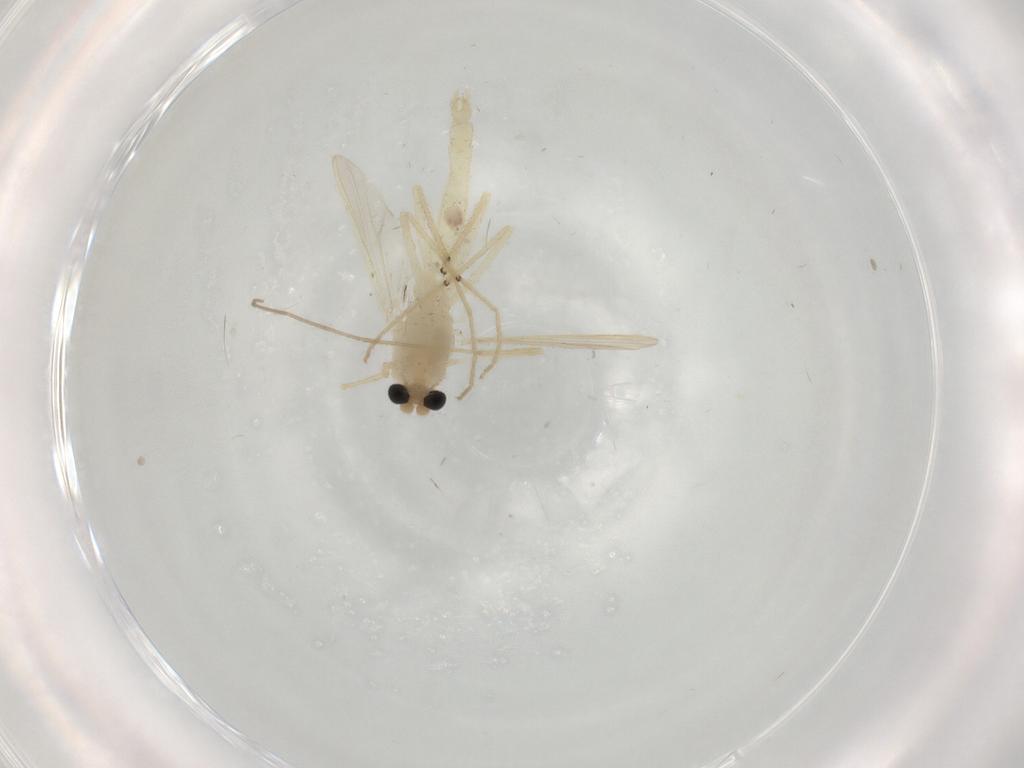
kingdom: Animalia
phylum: Arthropoda
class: Insecta
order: Diptera
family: Chironomidae
